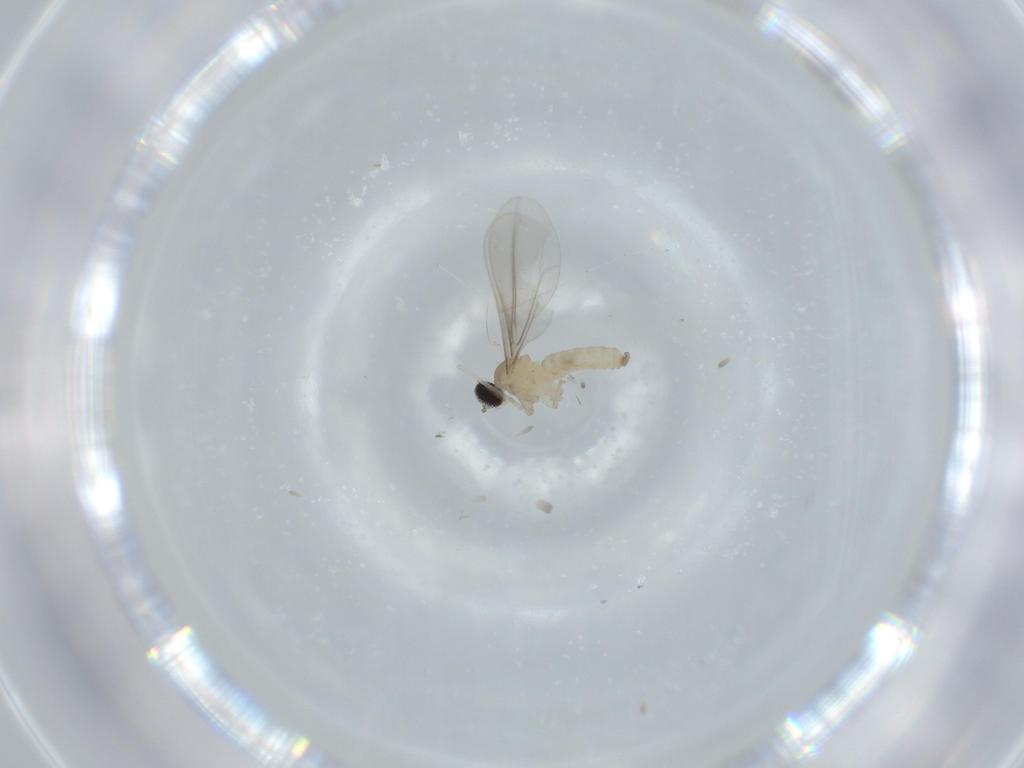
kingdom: Animalia
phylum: Arthropoda
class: Insecta
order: Diptera
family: Cecidomyiidae
